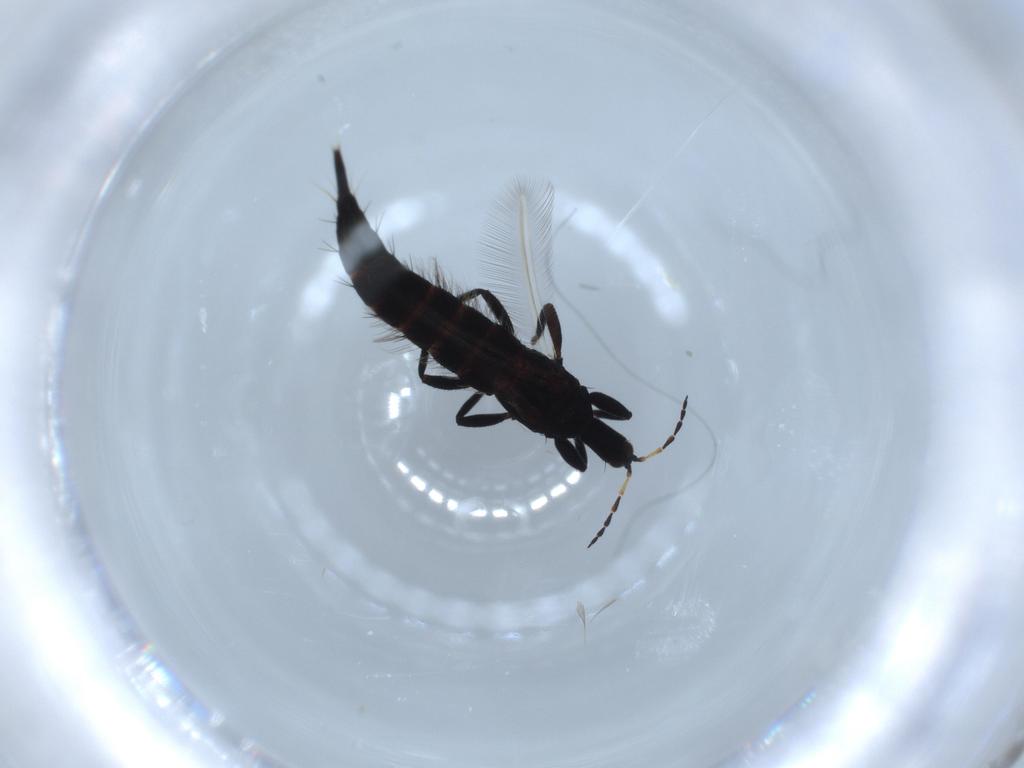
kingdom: Animalia
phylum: Arthropoda
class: Insecta
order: Thysanoptera
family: Phlaeothripidae
